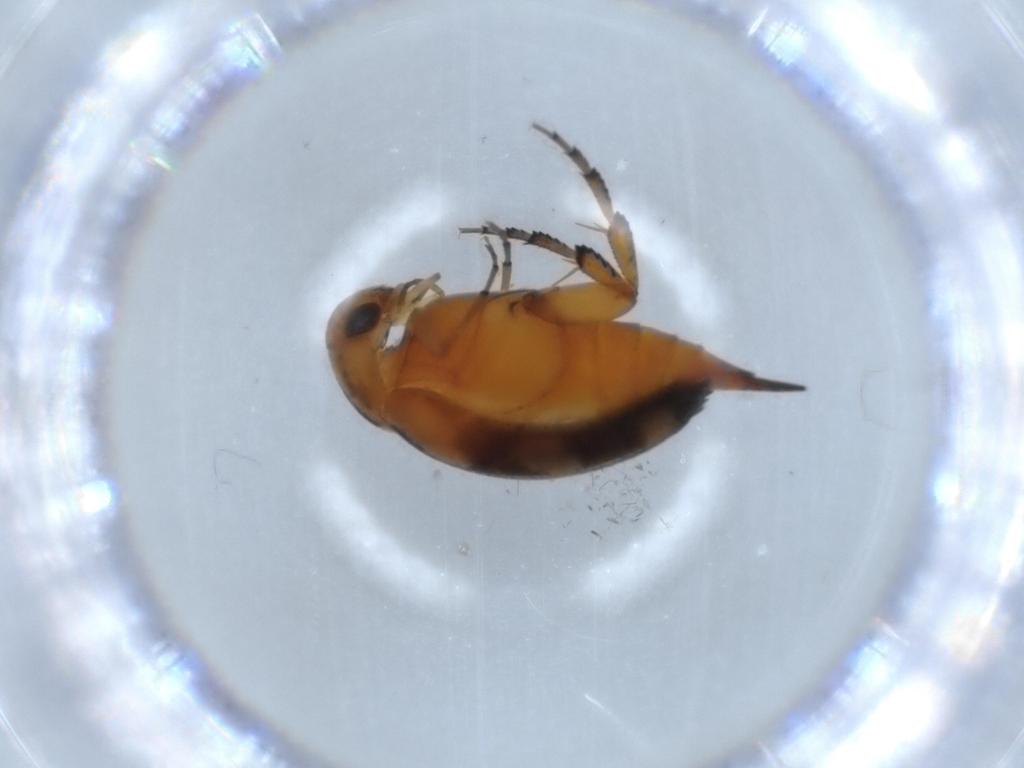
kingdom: Animalia
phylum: Arthropoda
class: Insecta
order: Coleoptera
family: Mordellidae
